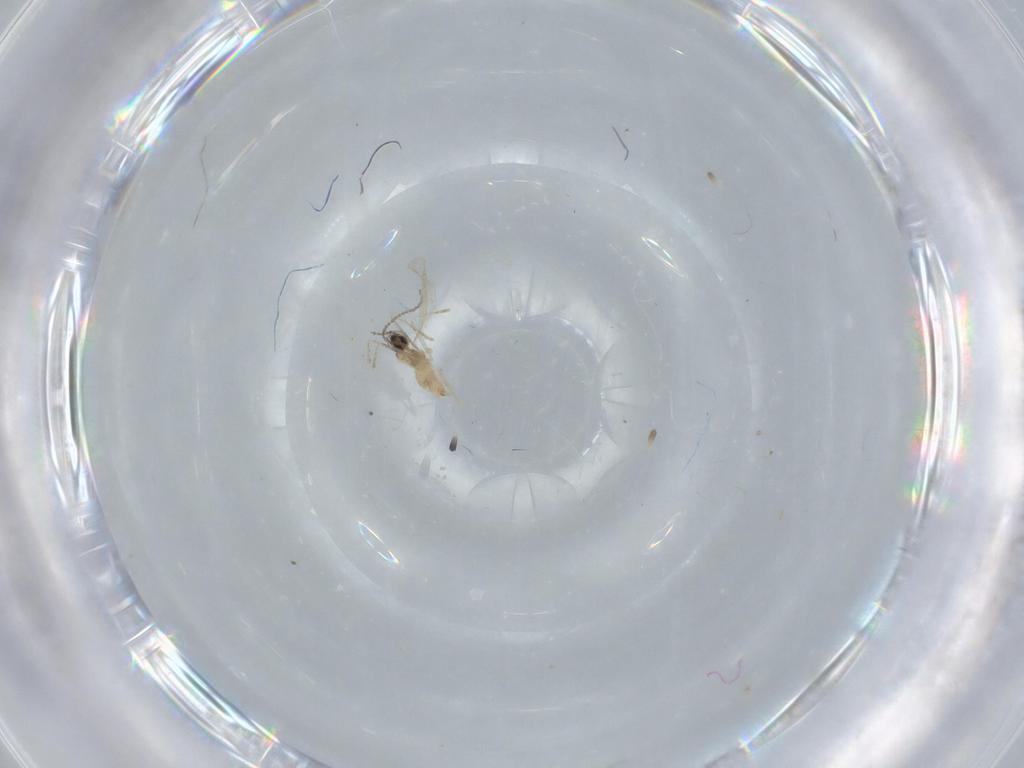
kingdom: Animalia
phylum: Arthropoda
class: Insecta
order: Diptera
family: Cecidomyiidae
